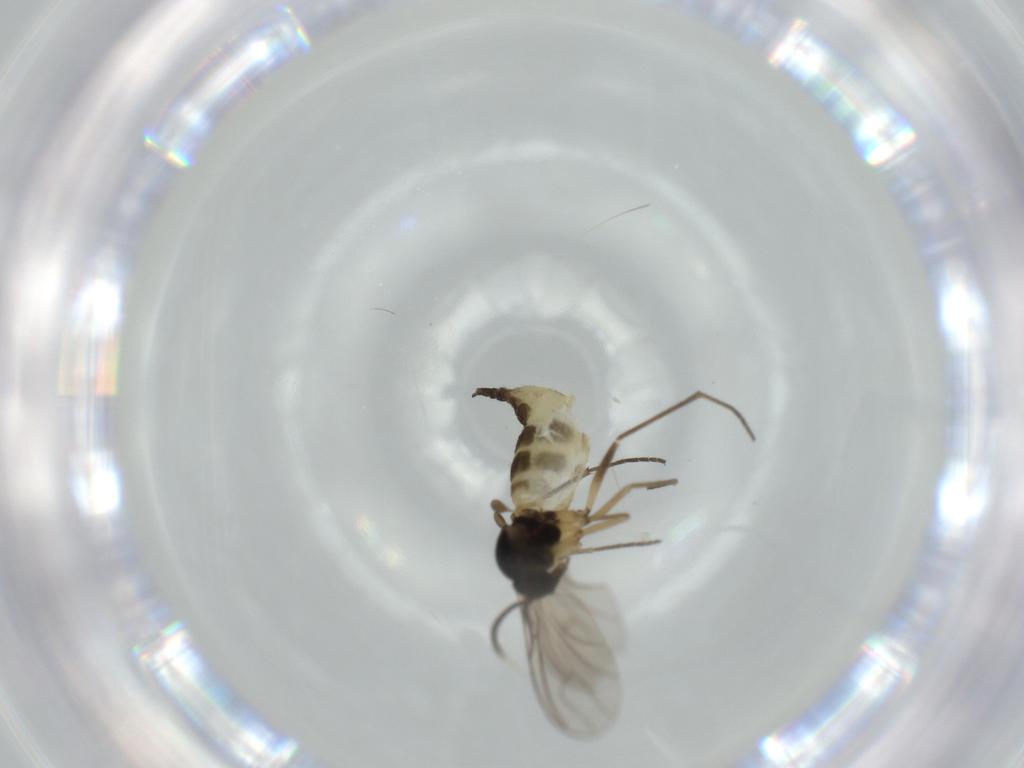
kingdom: Animalia
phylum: Arthropoda
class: Insecta
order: Diptera
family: Sciaridae
